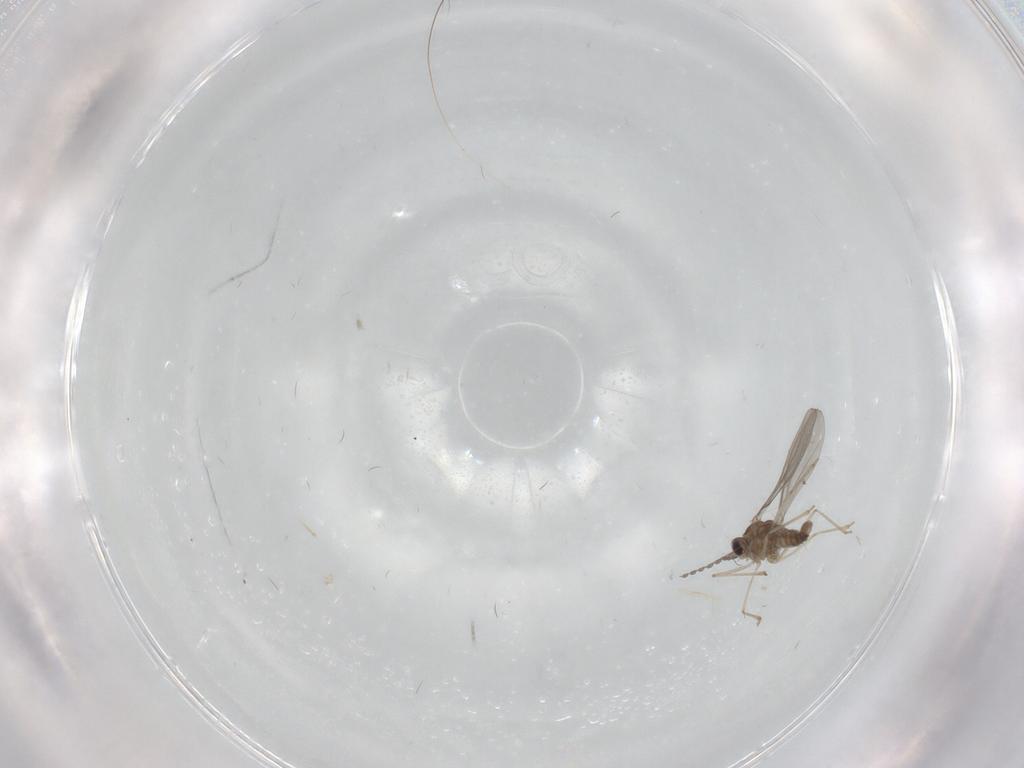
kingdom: Animalia
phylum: Arthropoda
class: Insecta
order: Diptera
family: Cecidomyiidae
